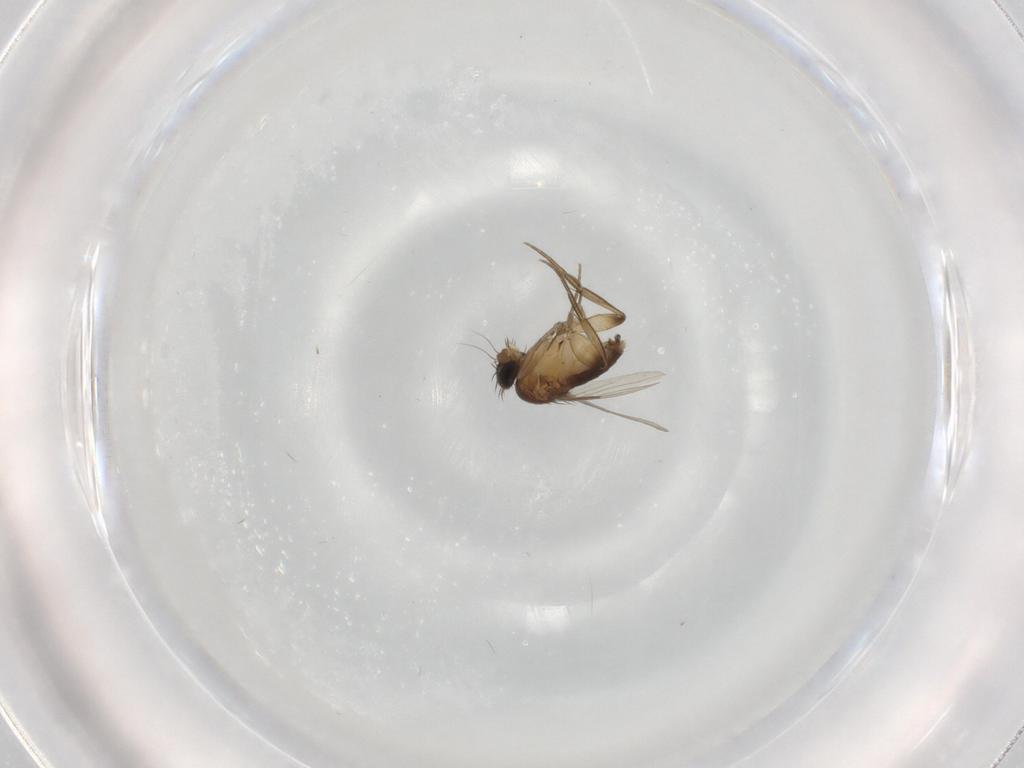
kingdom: Animalia
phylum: Arthropoda
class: Insecta
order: Diptera
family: Phoridae
